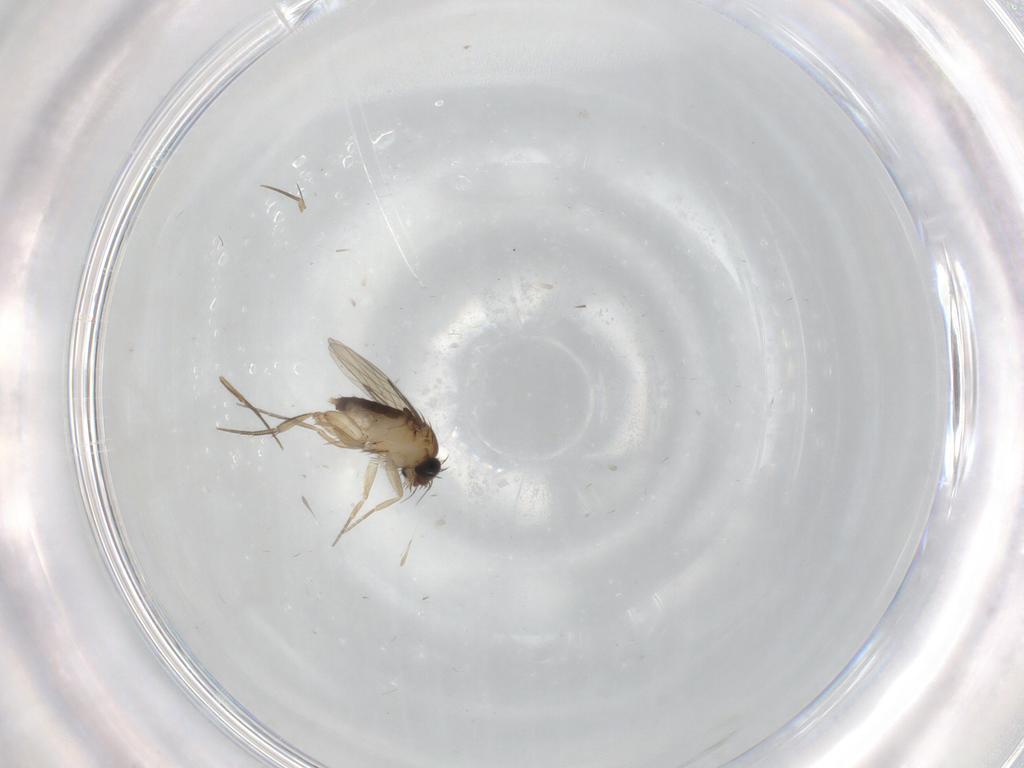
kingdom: Animalia
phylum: Arthropoda
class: Insecta
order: Diptera
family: Phoridae
